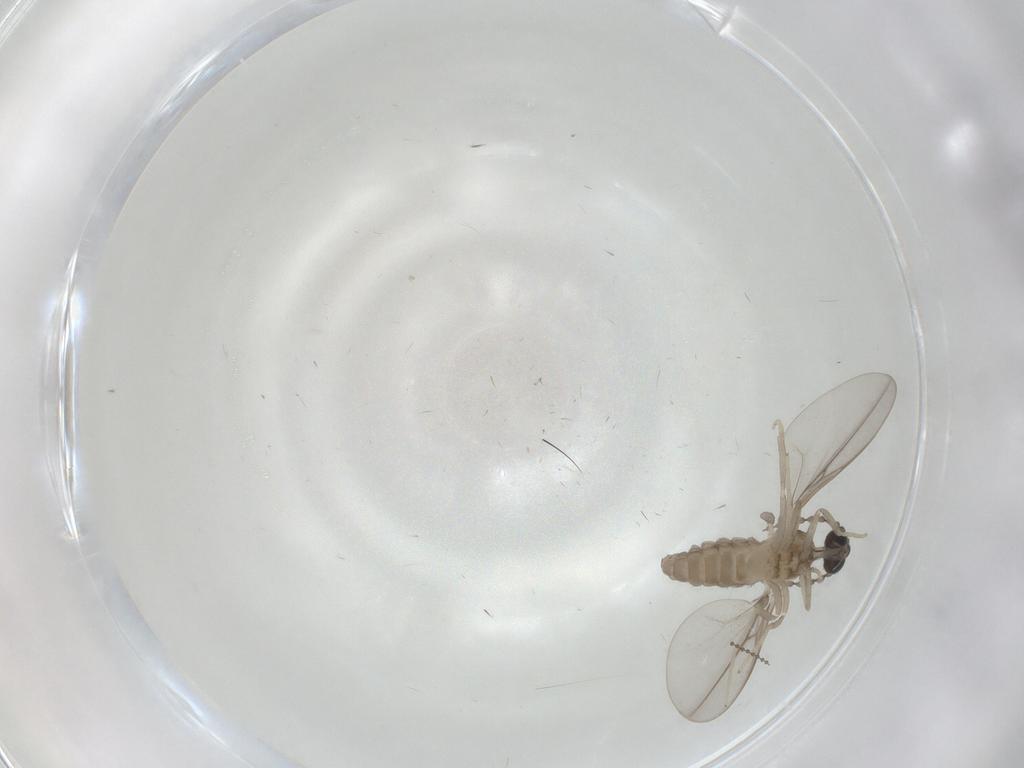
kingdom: Animalia
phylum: Arthropoda
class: Insecta
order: Diptera
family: Cecidomyiidae
